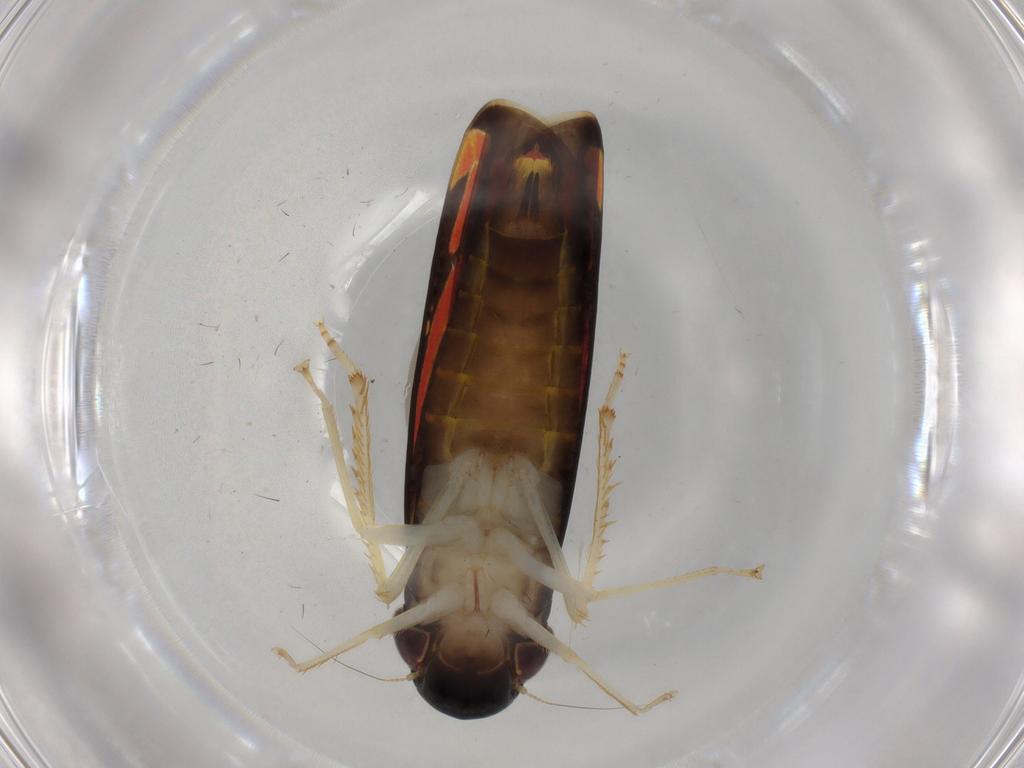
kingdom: Animalia
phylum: Arthropoda
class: Insecta
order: Hemiptera
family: Cicadellidae
